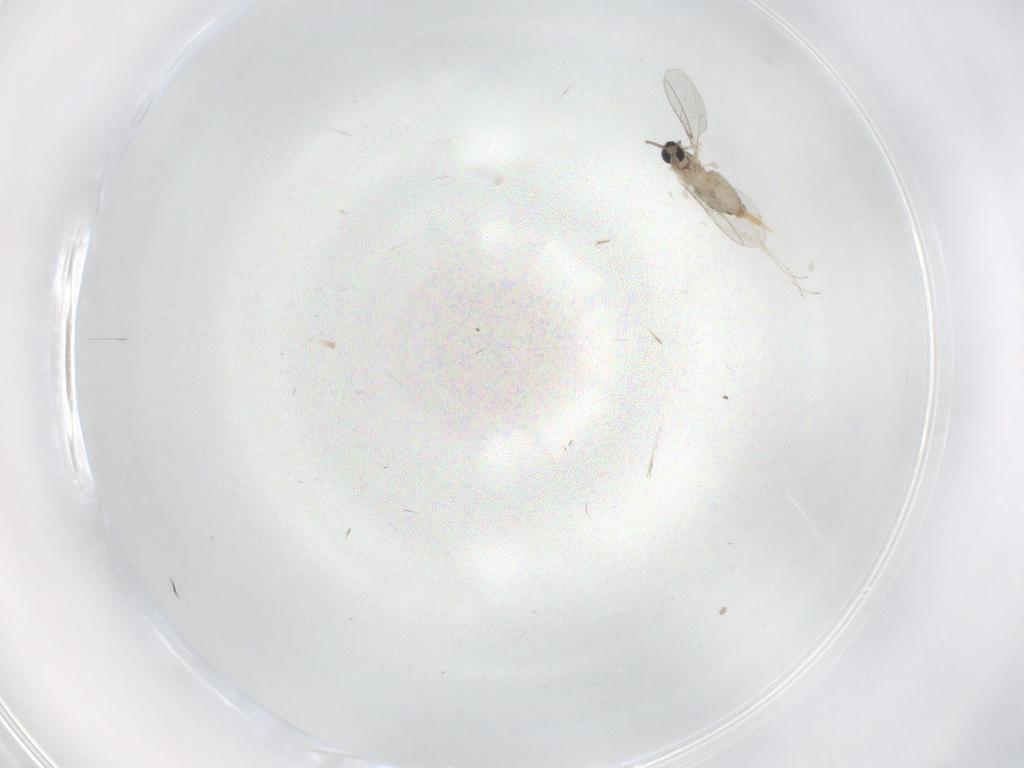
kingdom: Animalia
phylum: Arthropoda
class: Insecta
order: Diptera
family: Cecidomyiidae
